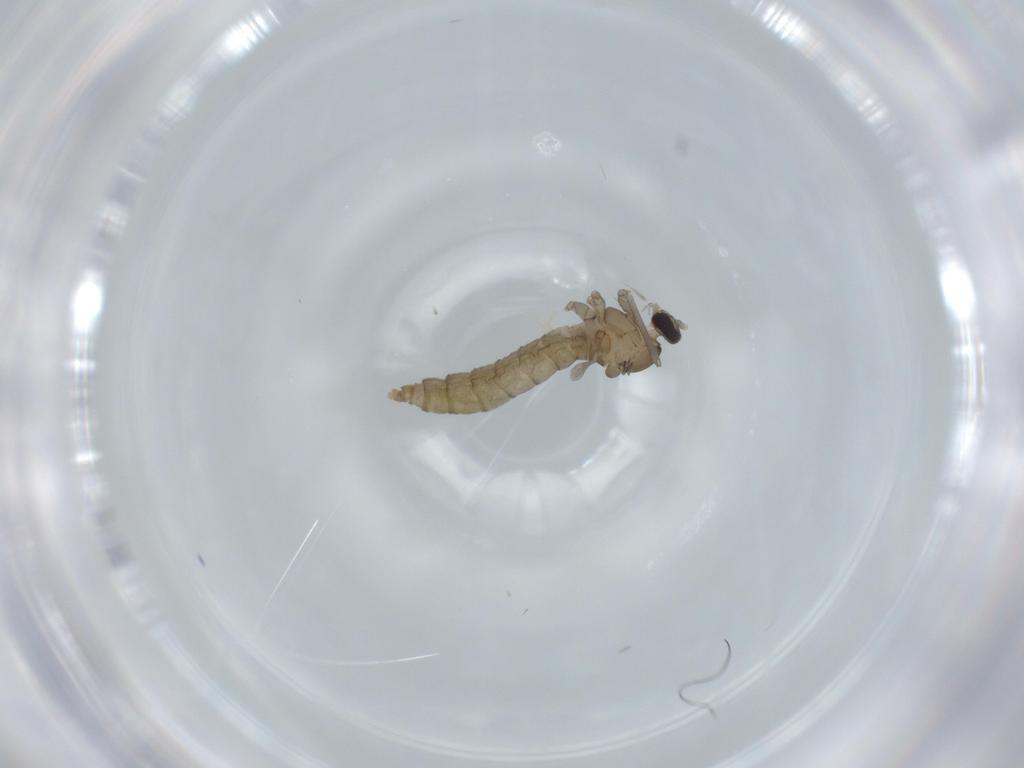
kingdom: Animalia
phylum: Arthropoda
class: Insecta
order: Diptera
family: Cecidomyiidae
